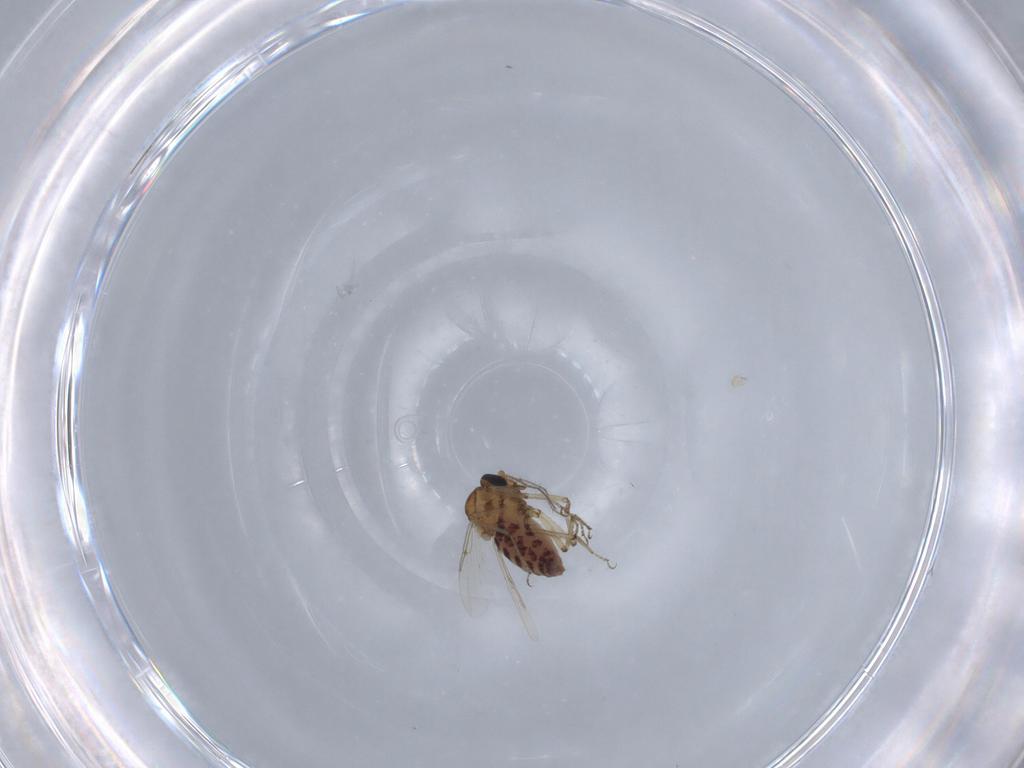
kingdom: Animalia
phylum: Arthropoda
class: Insecta
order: Diptera
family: Ceratopogonidae
